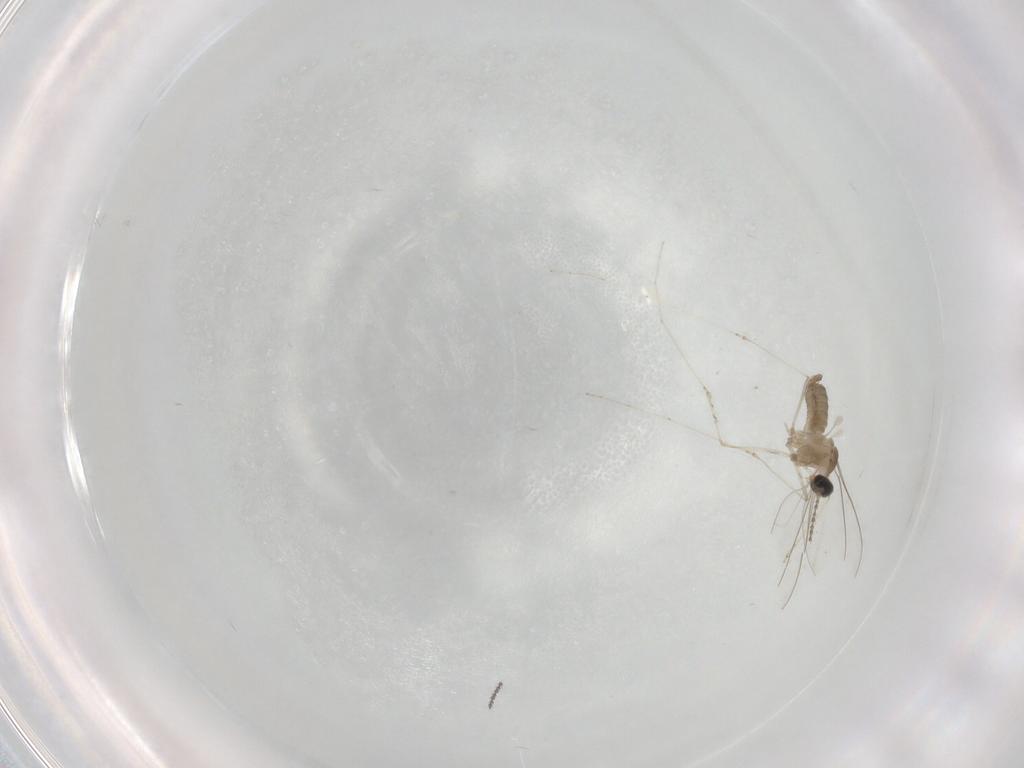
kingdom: Animalia
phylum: Arthropoda
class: Insecta
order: Diptera
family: Cecidomyiidae
